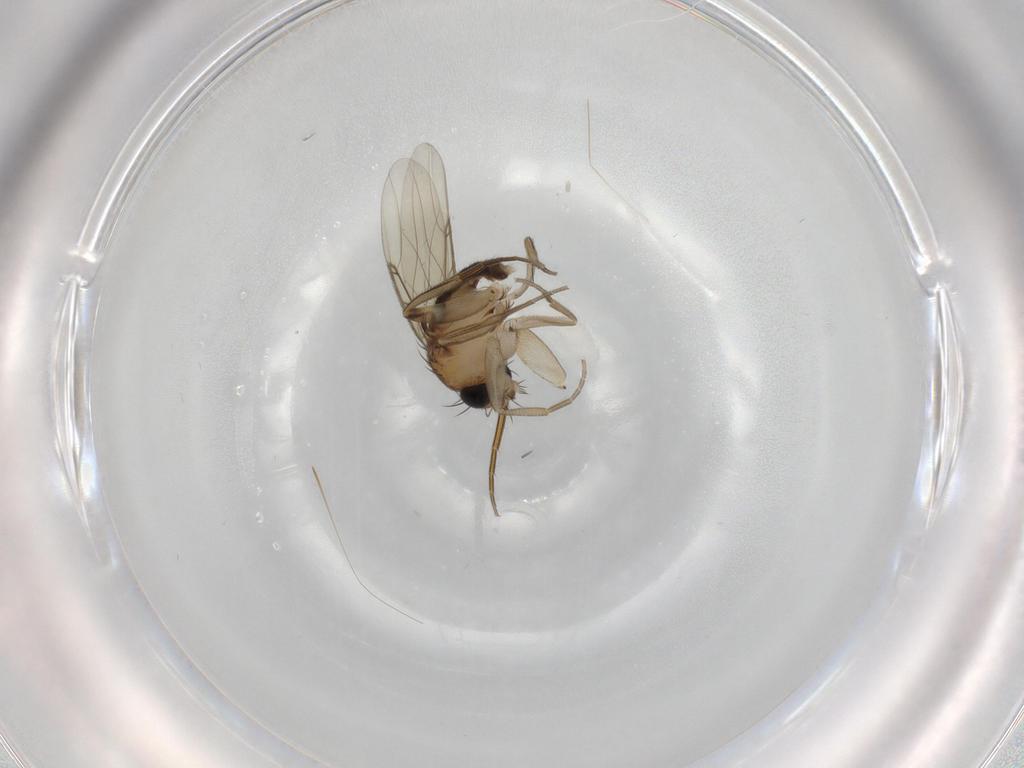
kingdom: Animalia
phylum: Arthropoda
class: Insecta
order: Diptera
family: Phoridae
